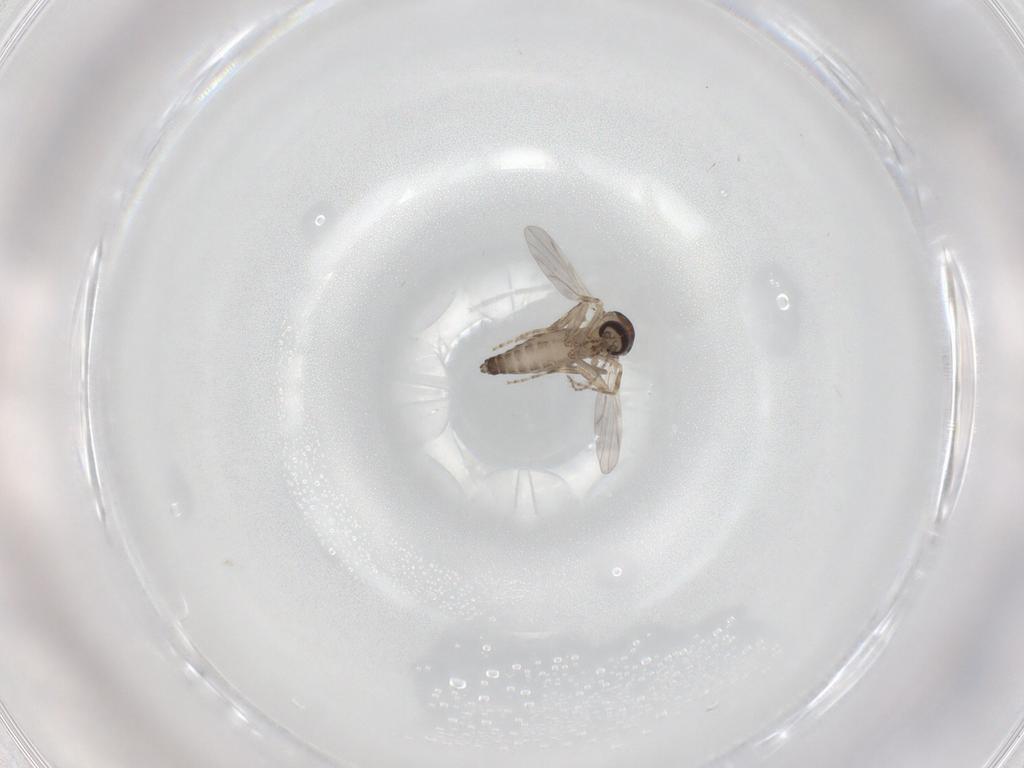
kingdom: Animalia
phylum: Arthropoda
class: Insecta
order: Diptera
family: Ceratopogonidae
